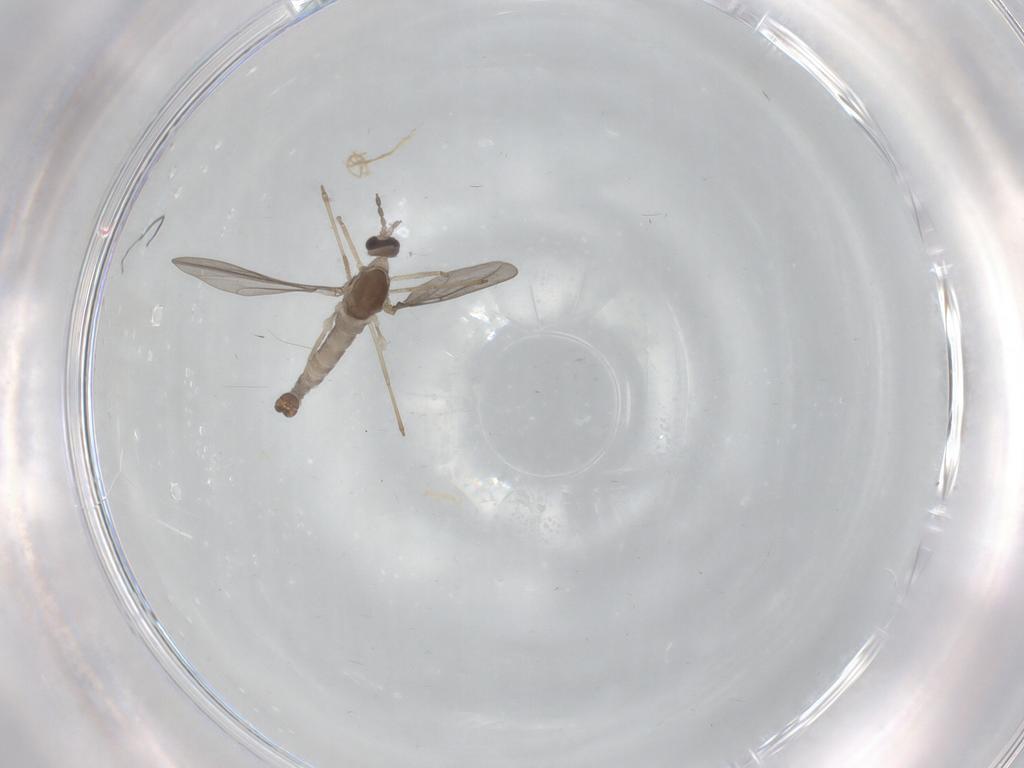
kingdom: Animalia
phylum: Arthropoda
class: Insecta
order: Diptera
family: Cecidomyiidae
